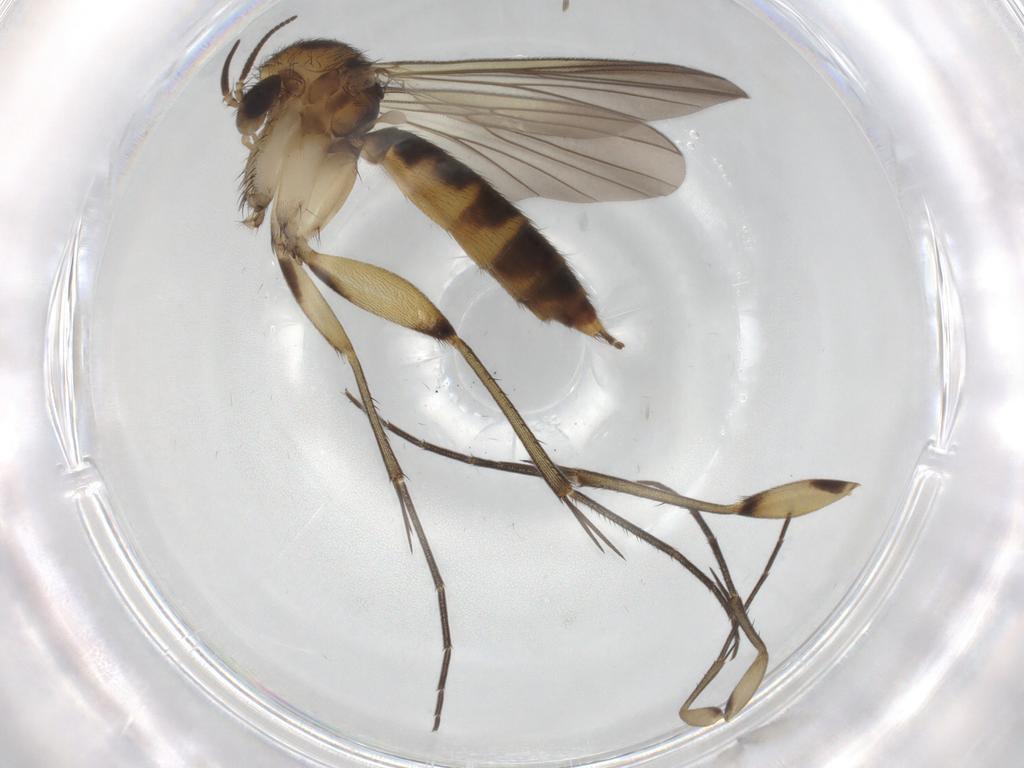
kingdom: Animalia
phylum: Arthropoda
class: Insecta
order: Diptera
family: Mycetophilidae
